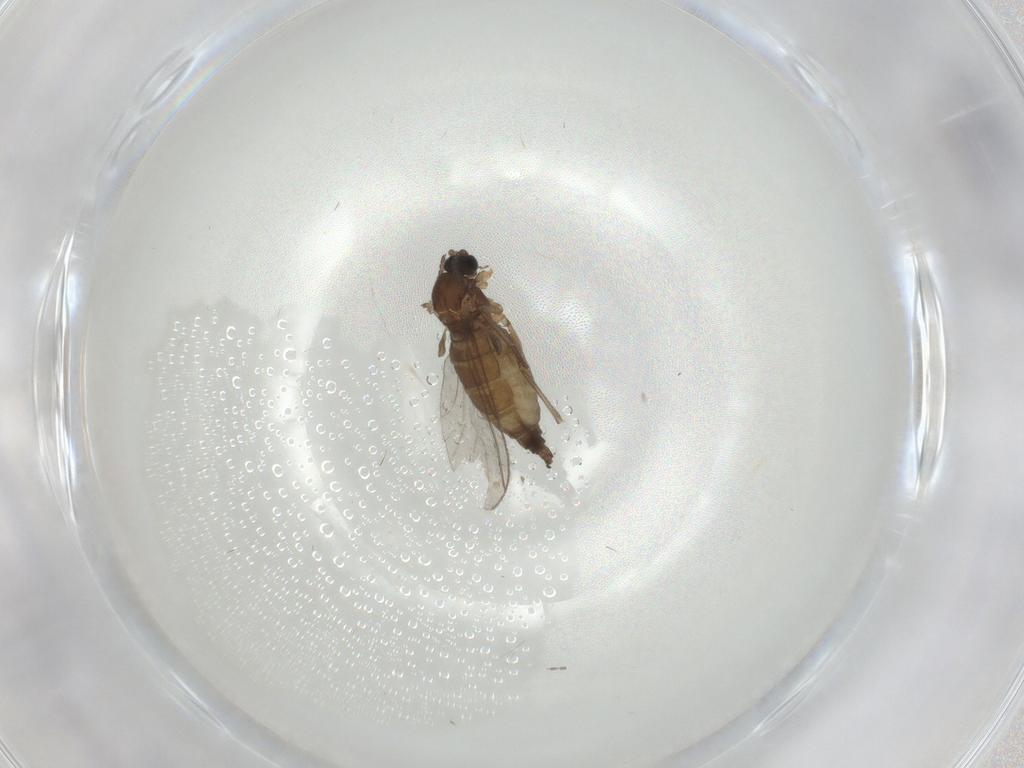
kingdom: Animalia
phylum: Arthropoda
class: Insecta
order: Diptera
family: Sciaridae
